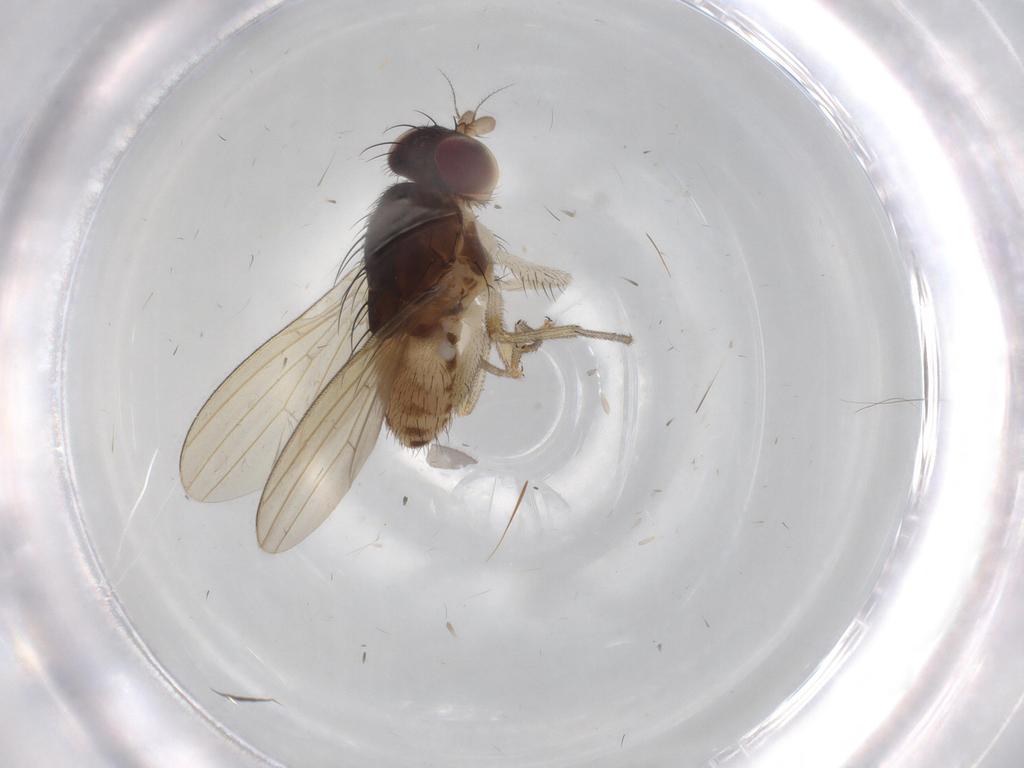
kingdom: Animalia
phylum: Arthropoda
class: Insecta
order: Diptera
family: Lauxaniidae
